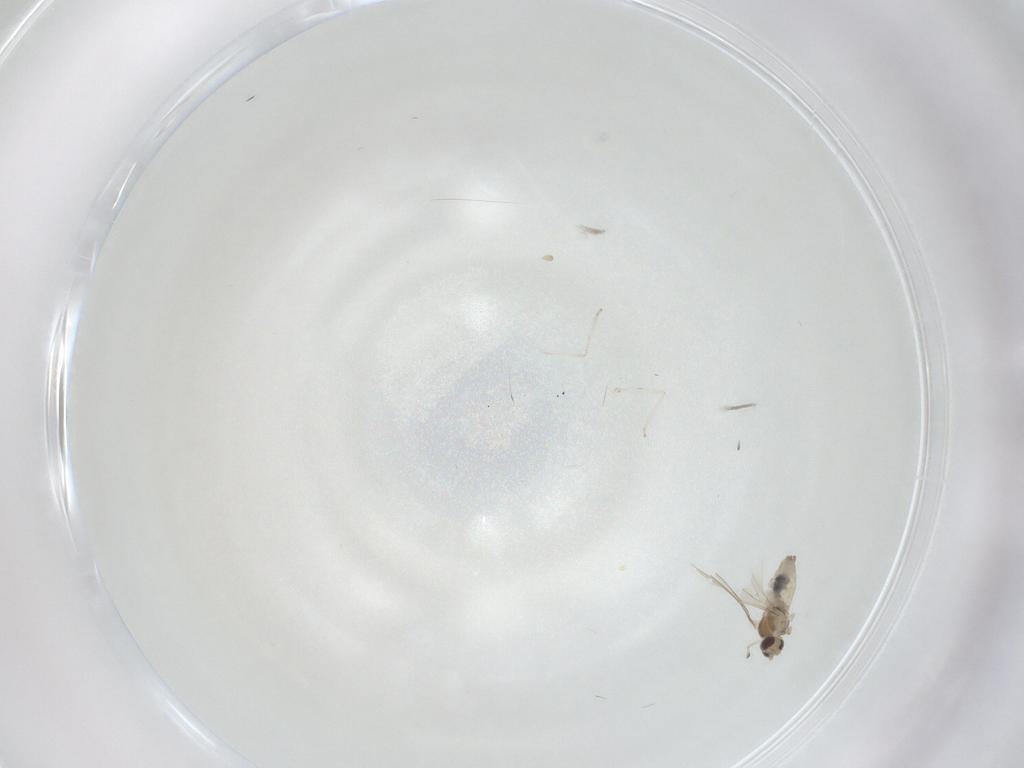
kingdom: Animalia
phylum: Arthropoda
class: Insecta
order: Diptera
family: Cecidomyiidae
